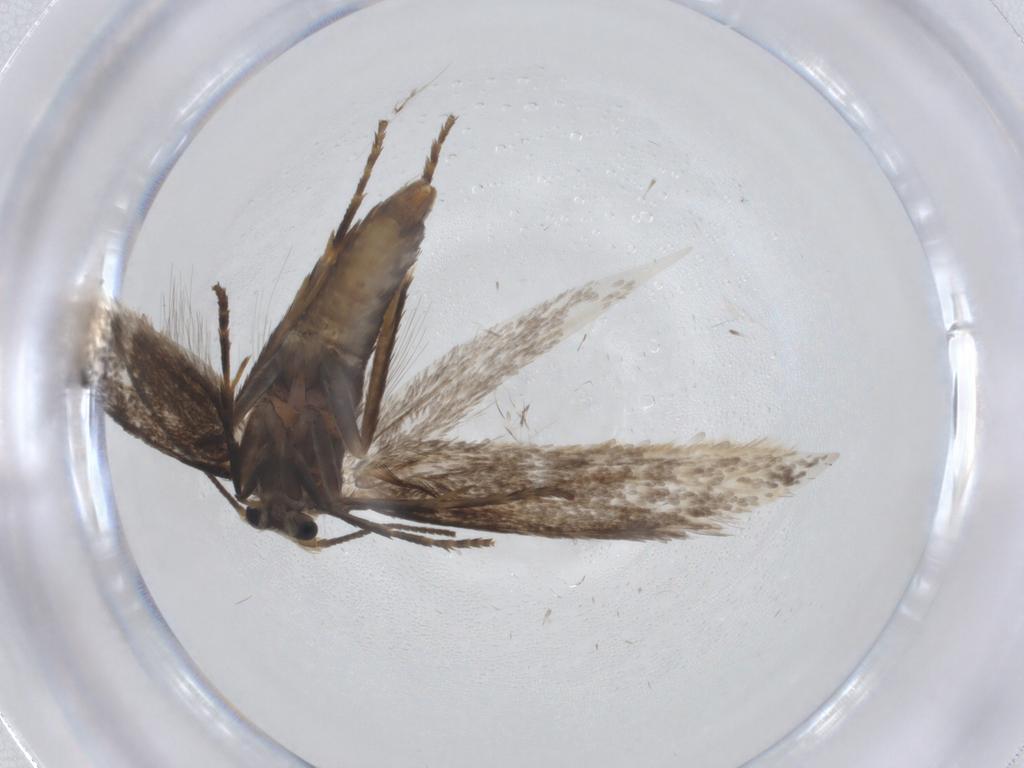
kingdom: Animalia
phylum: Arthropoda
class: Insecta
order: Lepidoptera
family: Nepticulidae
